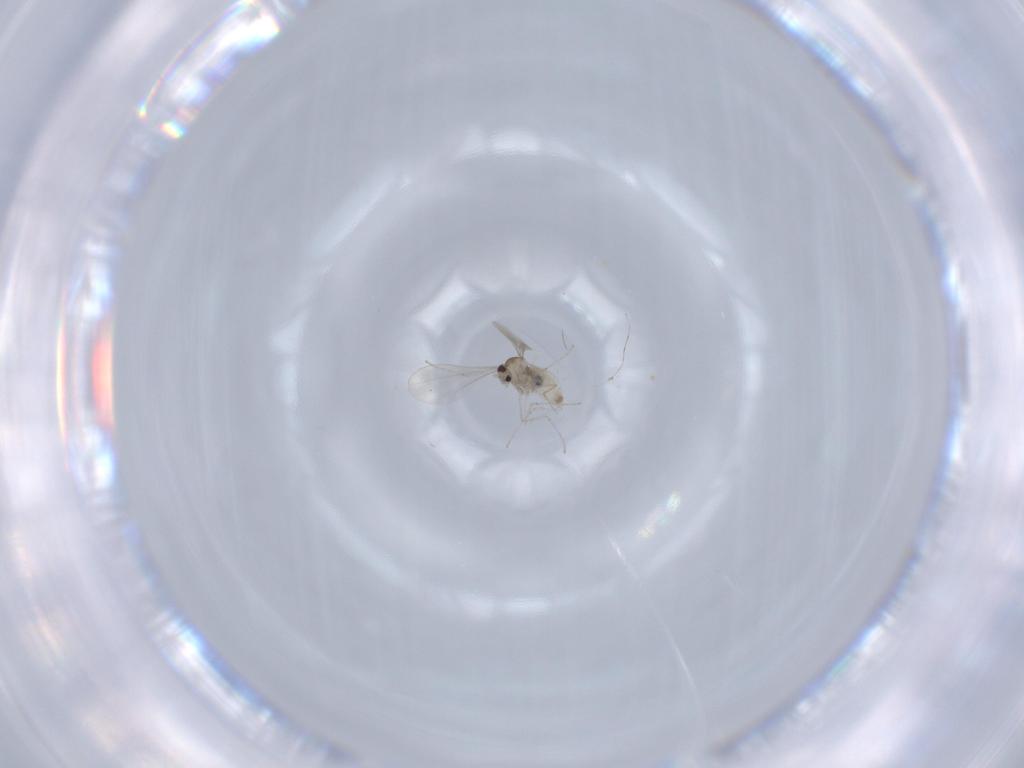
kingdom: Animalia
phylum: Arthropoda
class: Insecta
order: Diptera
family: Cecidomyiidae
